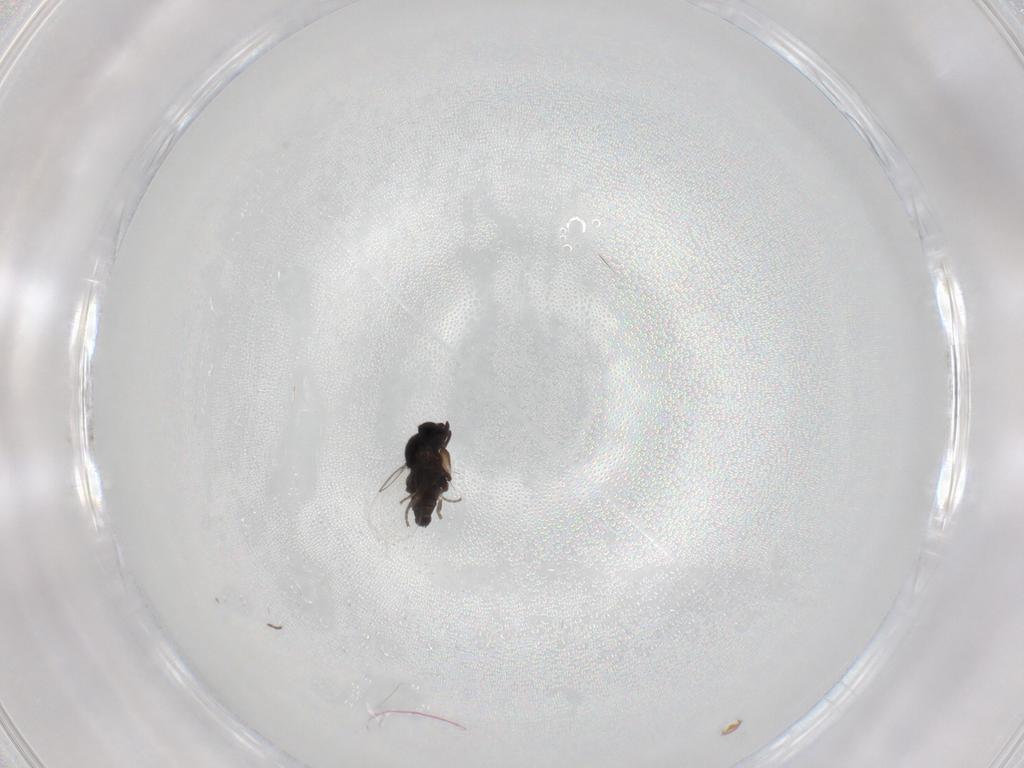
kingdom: Animalia
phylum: Arthropoda
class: Insecta
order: Diptera
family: Phoridae
